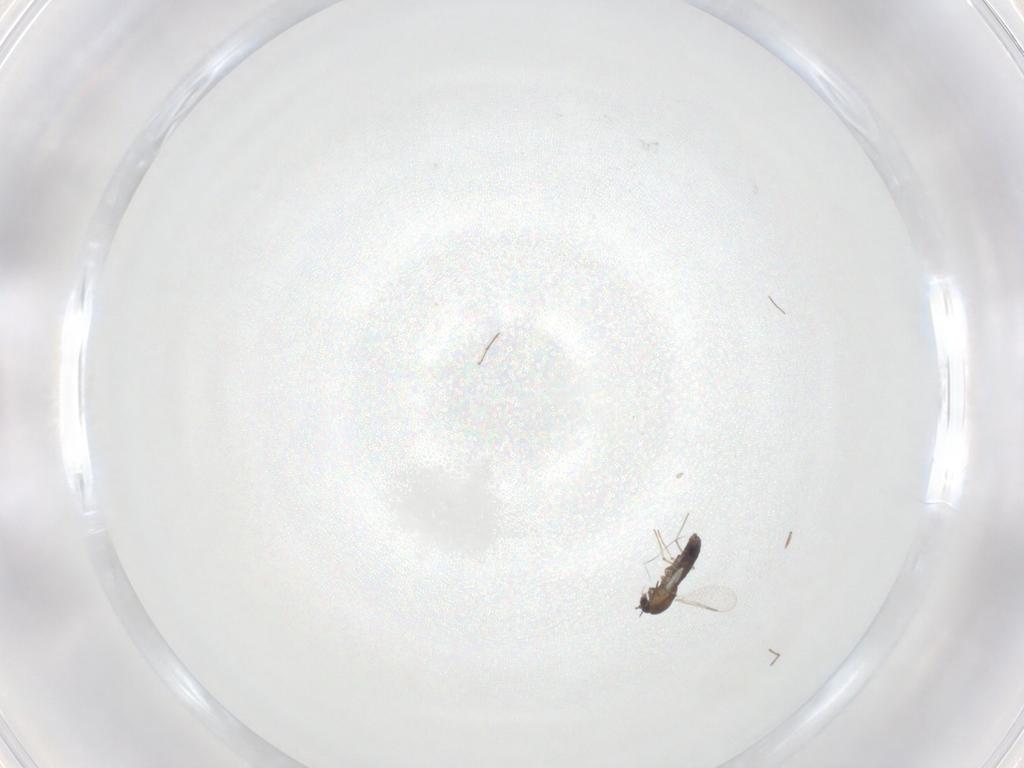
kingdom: Animalia
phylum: Arthropoda
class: Insecta
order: Diptera
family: Chironomidae
